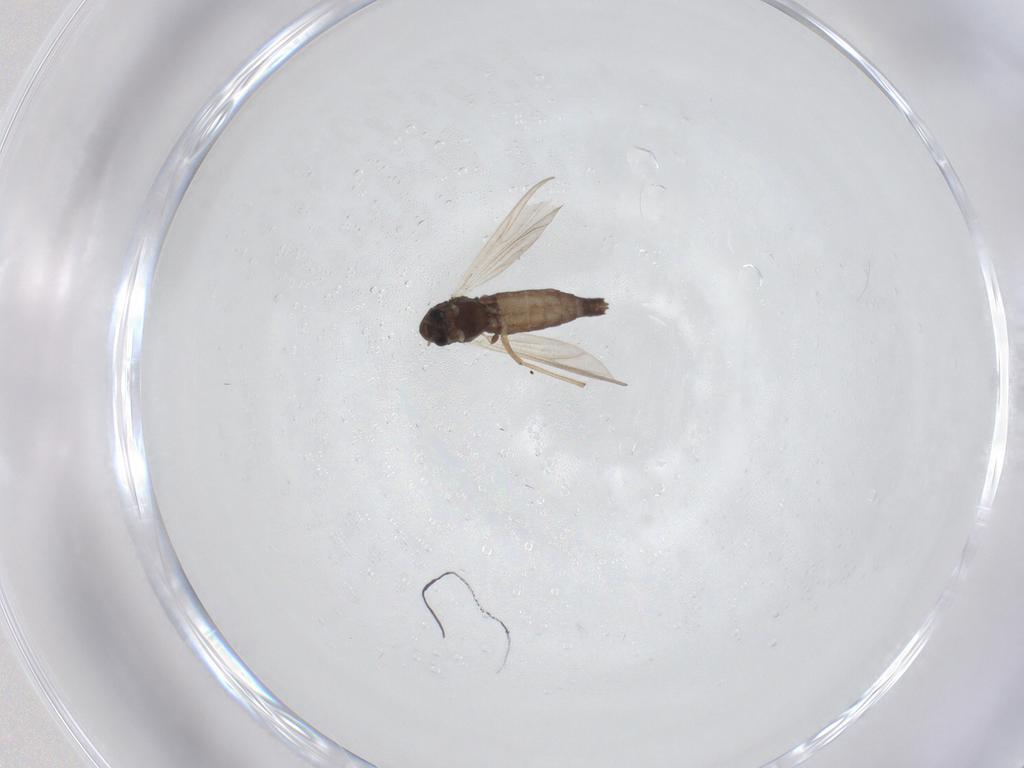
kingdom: Animalia
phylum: Arthropoda
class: Insecta
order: Diptera
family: Chironomidae
